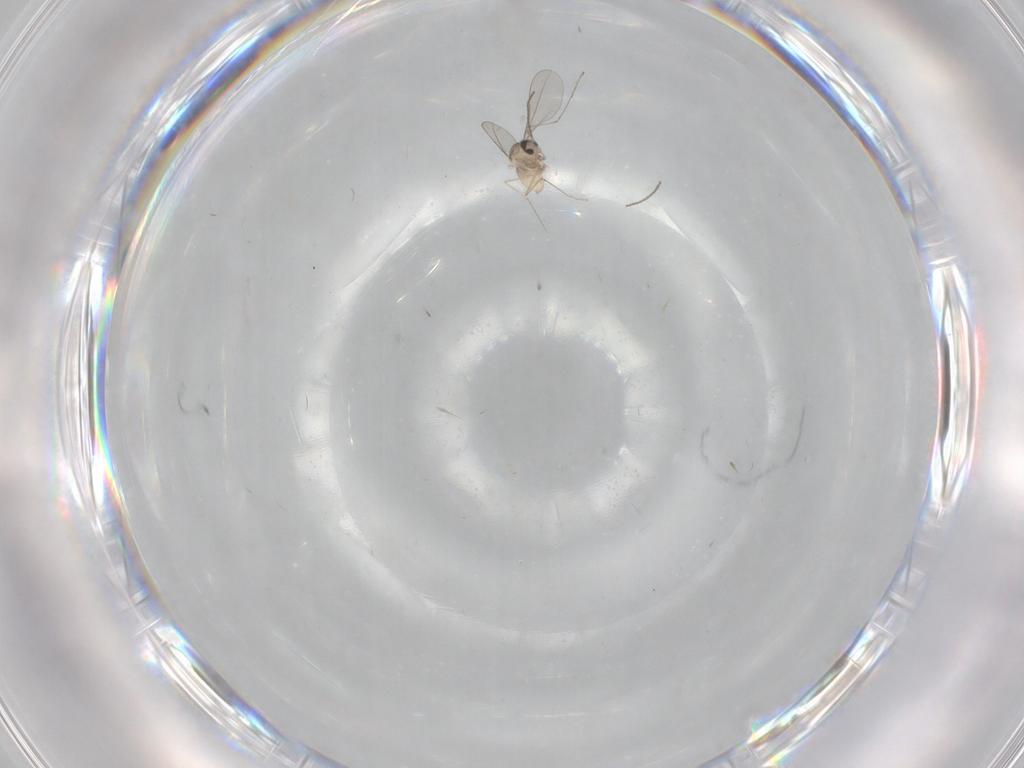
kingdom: Animalia
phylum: Arthropoda
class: Insecta
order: Diptera
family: Cecidomyiidae
